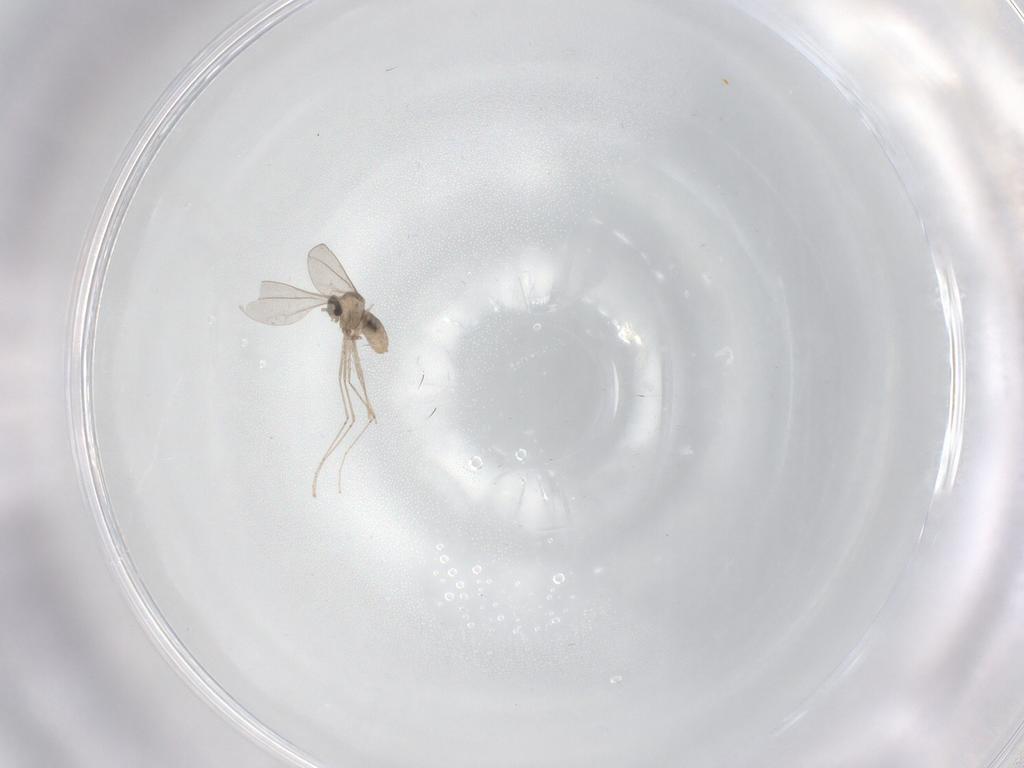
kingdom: Animalia
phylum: Arthropoda
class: Insecta
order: Diptera
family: Cecidomyiidae
